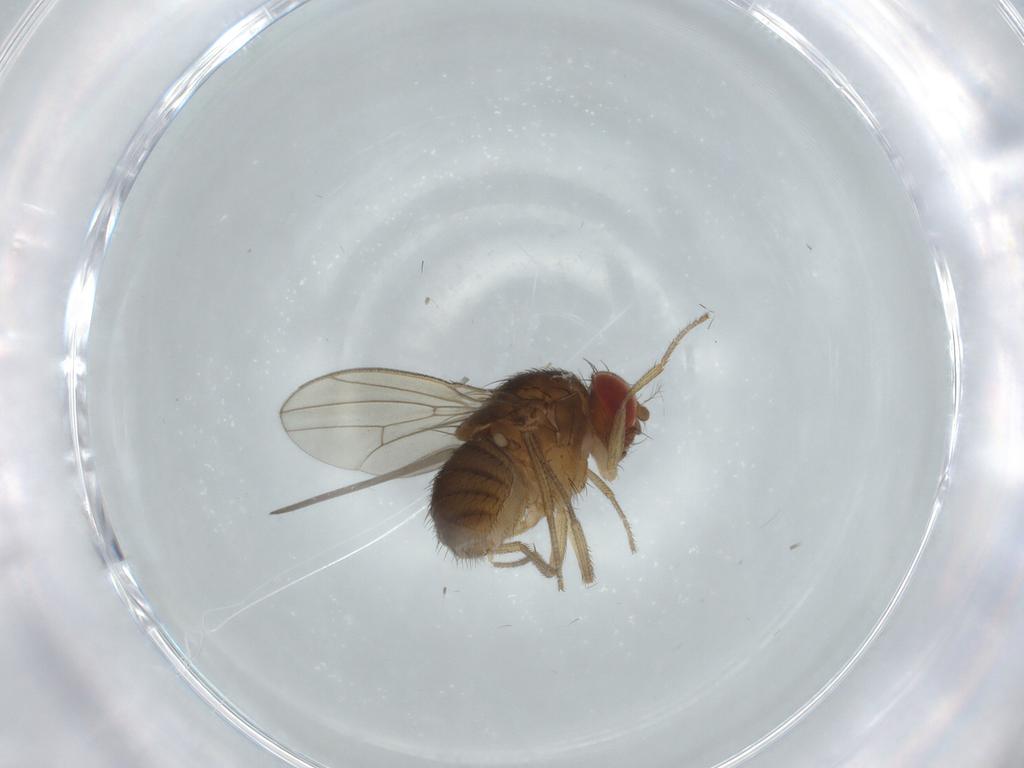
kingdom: Animalia
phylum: Arthropoda
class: Insecta
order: Diptera
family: Drosophilidae
